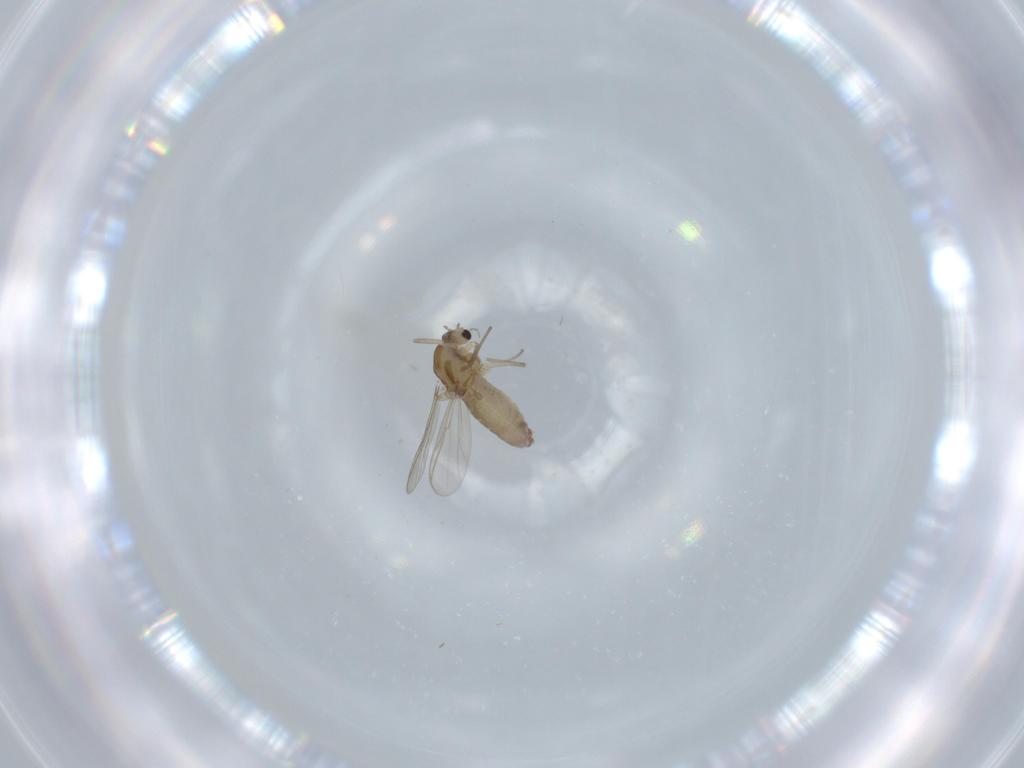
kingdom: Animalia
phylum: Arthropoda
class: Insecta
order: Diptera
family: Chironomidae
